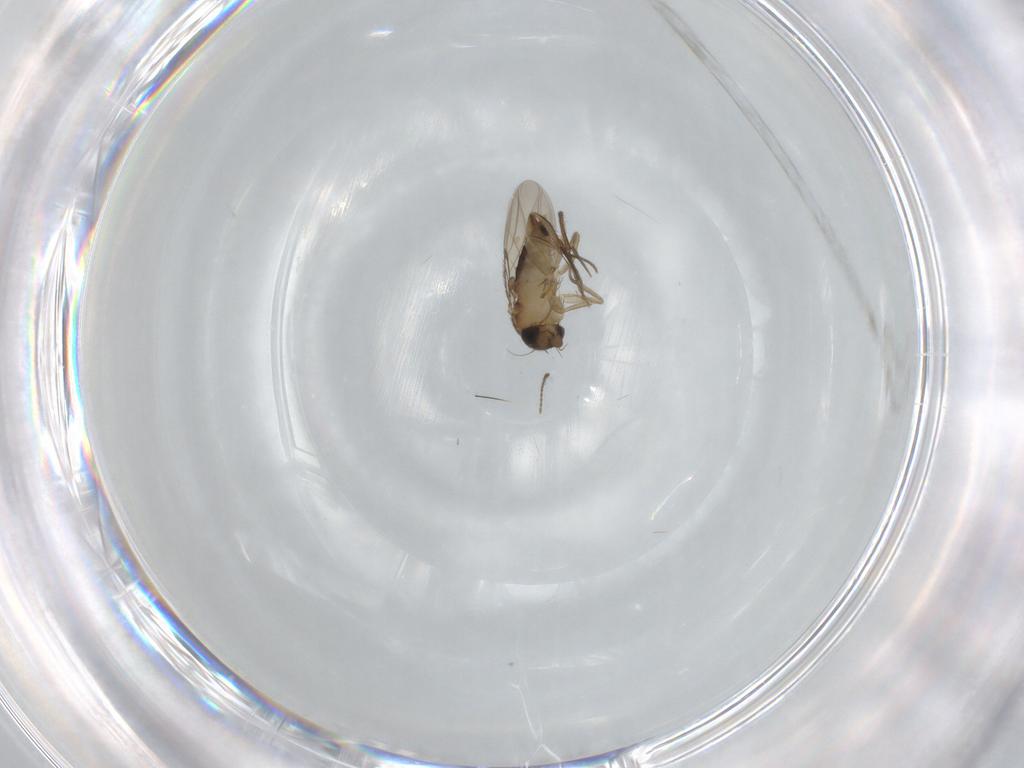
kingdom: Animalia
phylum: Arthropoda
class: Insecta
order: Diptera
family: Phoridae
